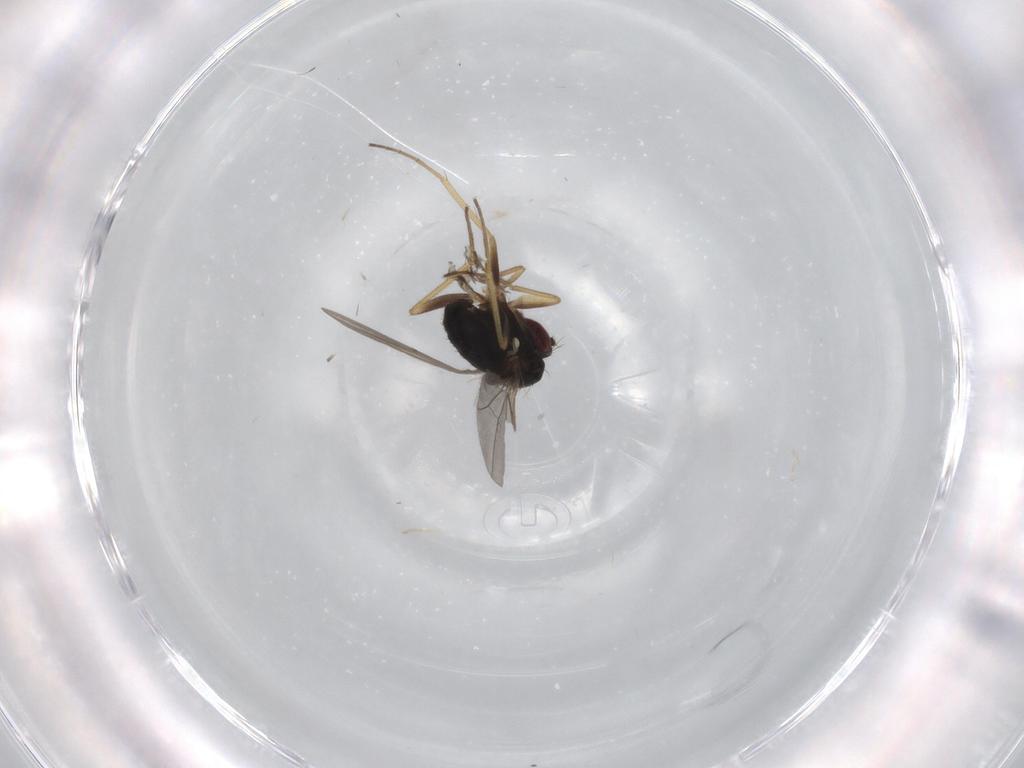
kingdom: Animalia
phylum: Arthropoda
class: Insecta
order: Diptera
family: Dolichopodidae
